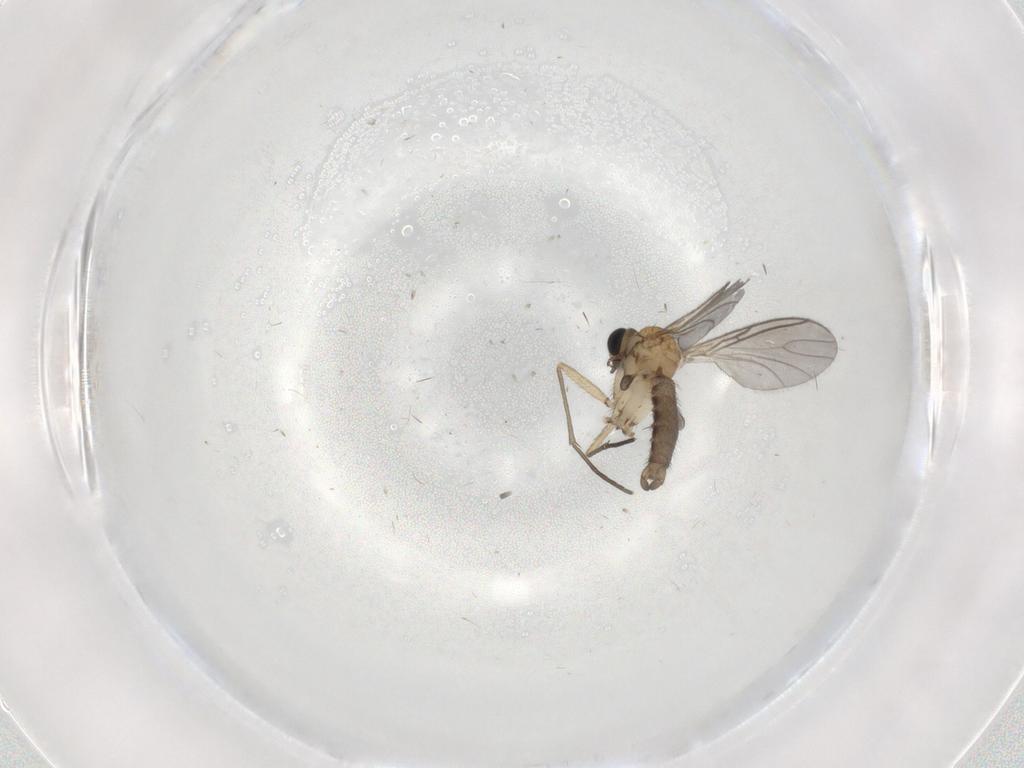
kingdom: Animalia
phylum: Arthropoda
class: Insecta
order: Diptera
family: Sciaridae
